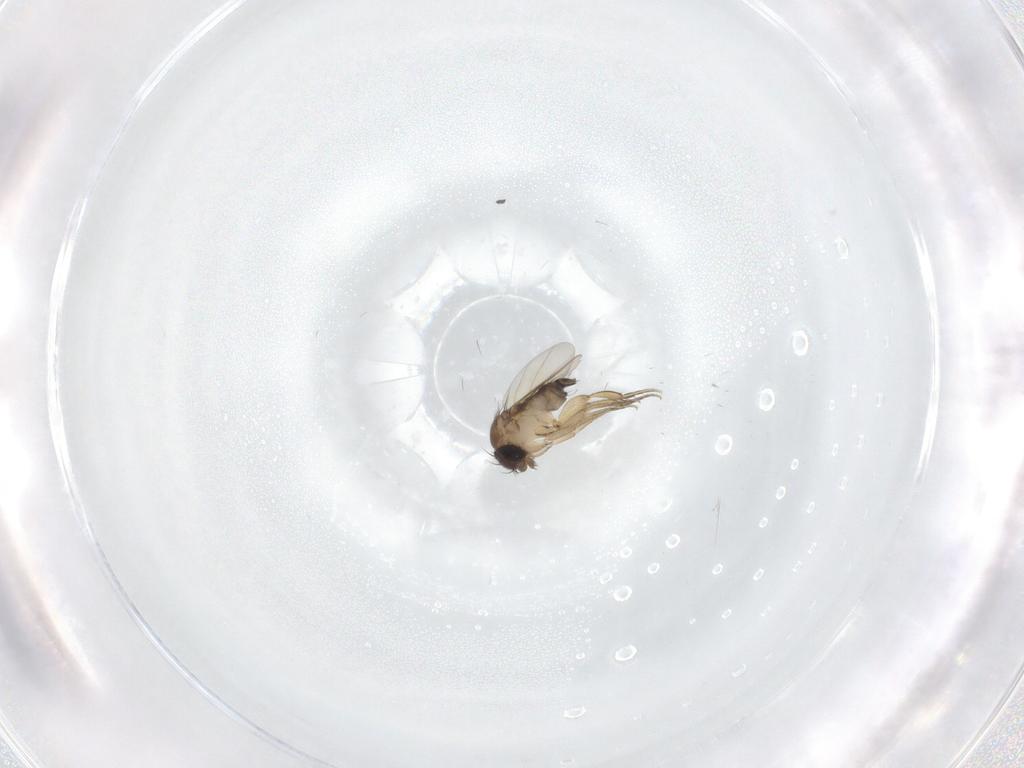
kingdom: Animalia
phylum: Arthropoda
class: Insecta
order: Diptera
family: Phoridae
